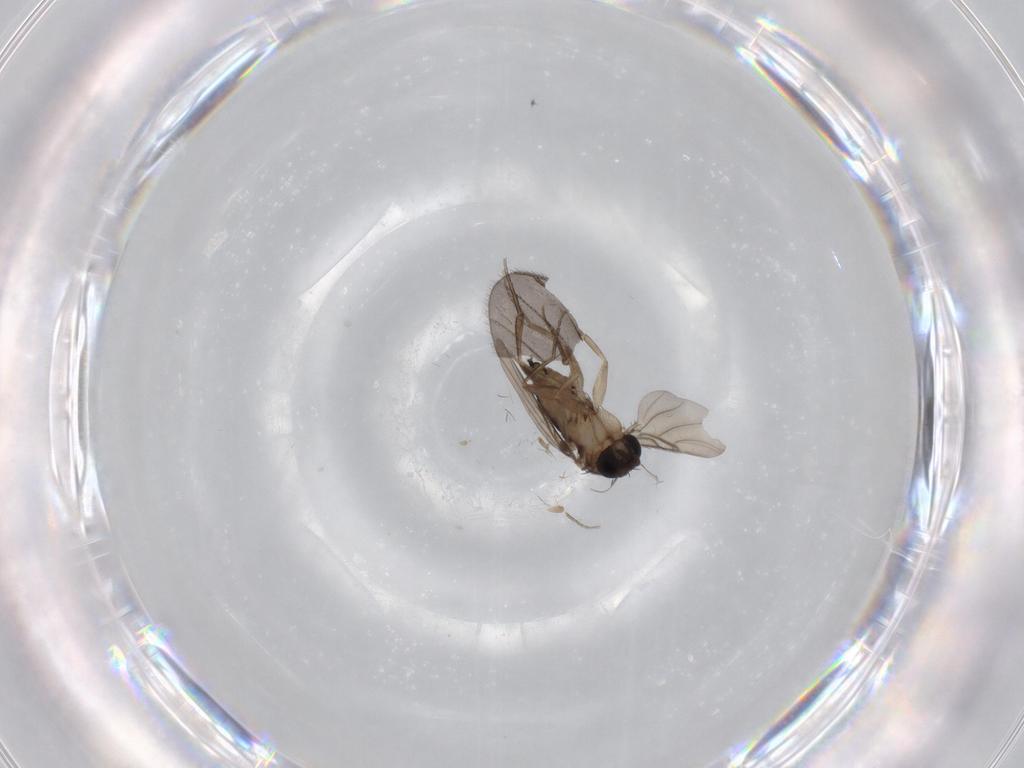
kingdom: Animalia
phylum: Arthropoda
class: Insecta
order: Diptera
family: Phoridae
